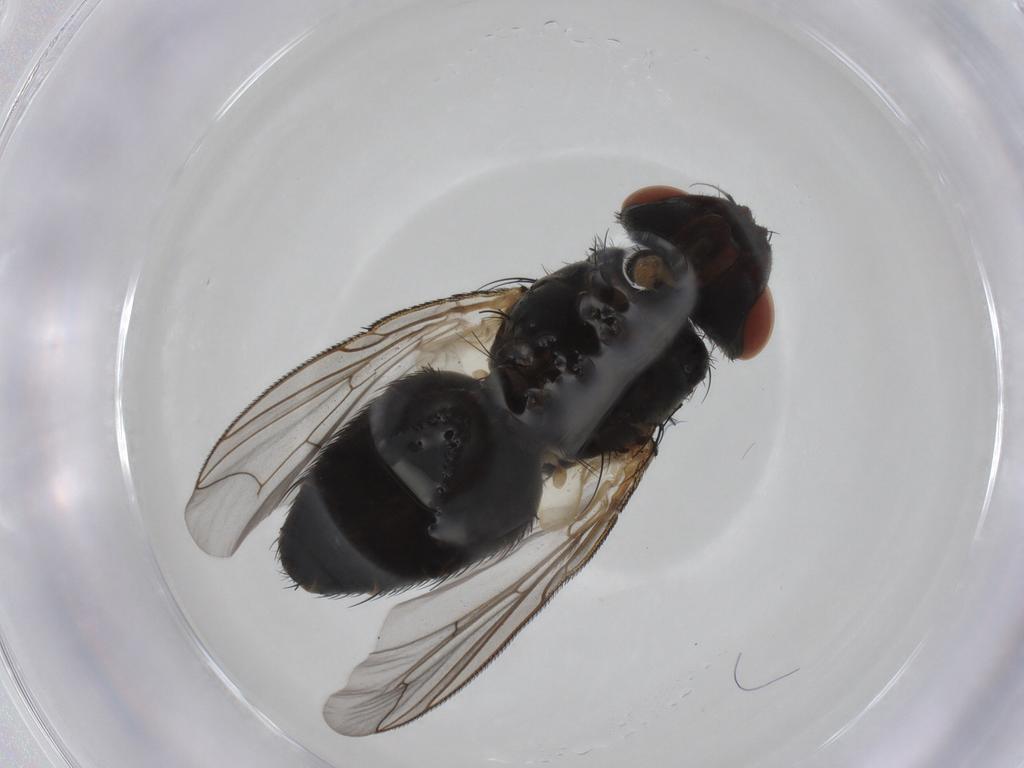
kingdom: Animalia
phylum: Arthropoda
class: Insecta
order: Diptera
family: Sarcophagidae
